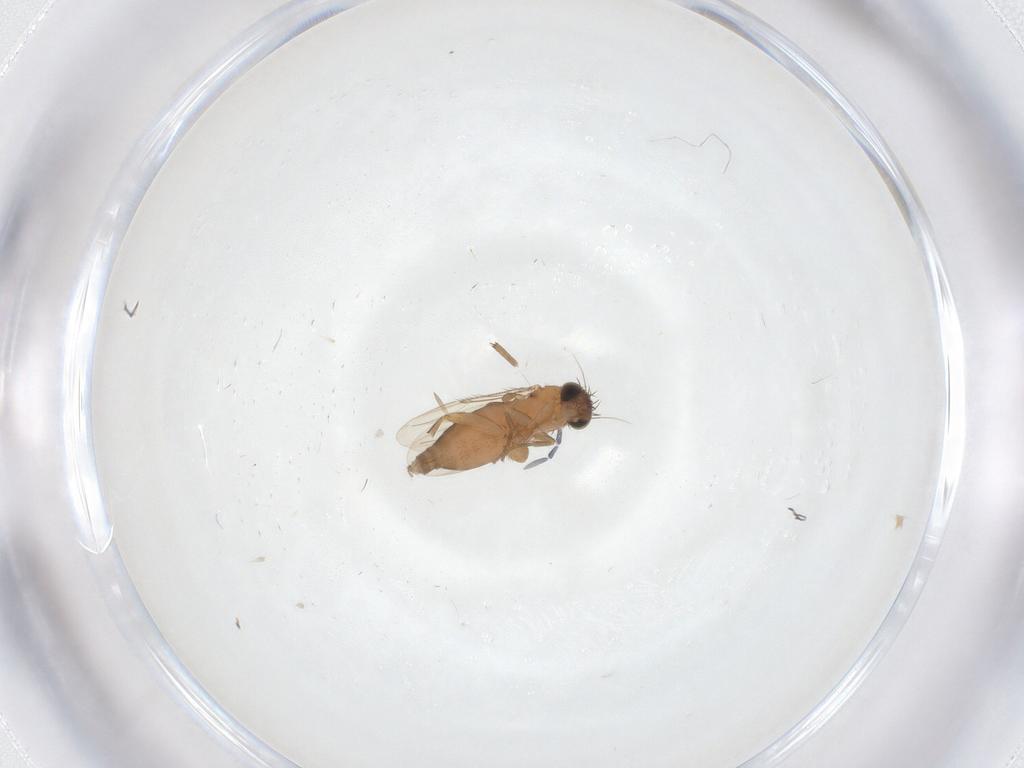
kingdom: Animalia
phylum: Arthropoda
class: Insecta
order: Diptera
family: Phoridae
